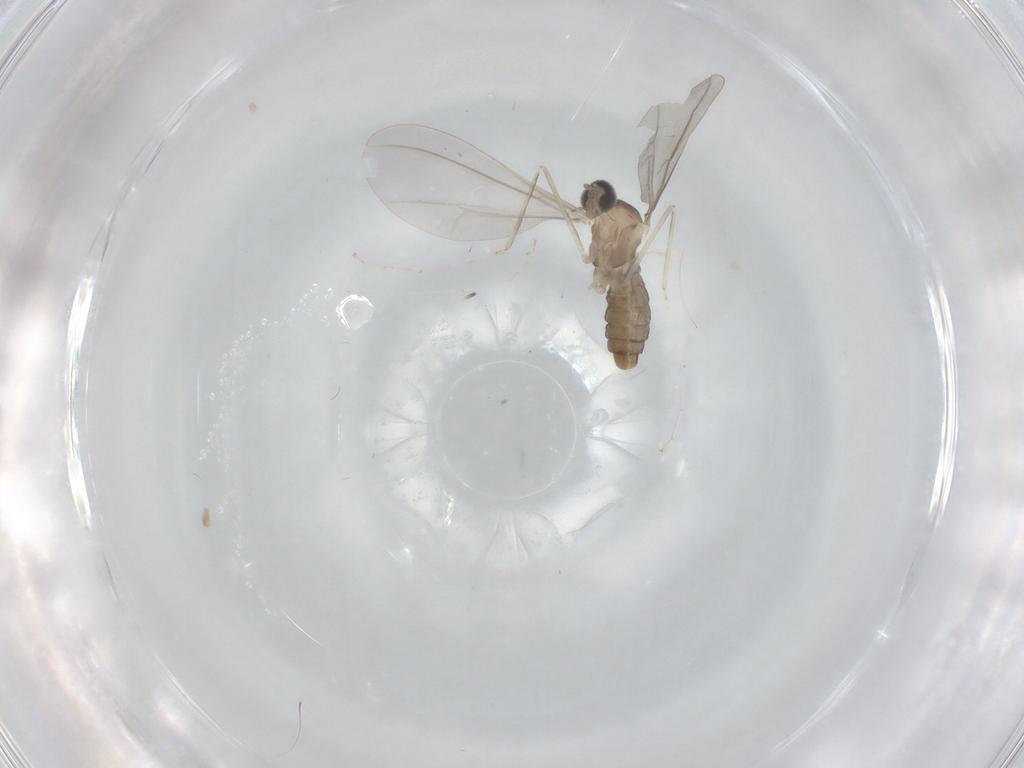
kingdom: Animalia
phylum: Arthropoda
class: Insecta
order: Diptera
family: Cecidomyiidae
